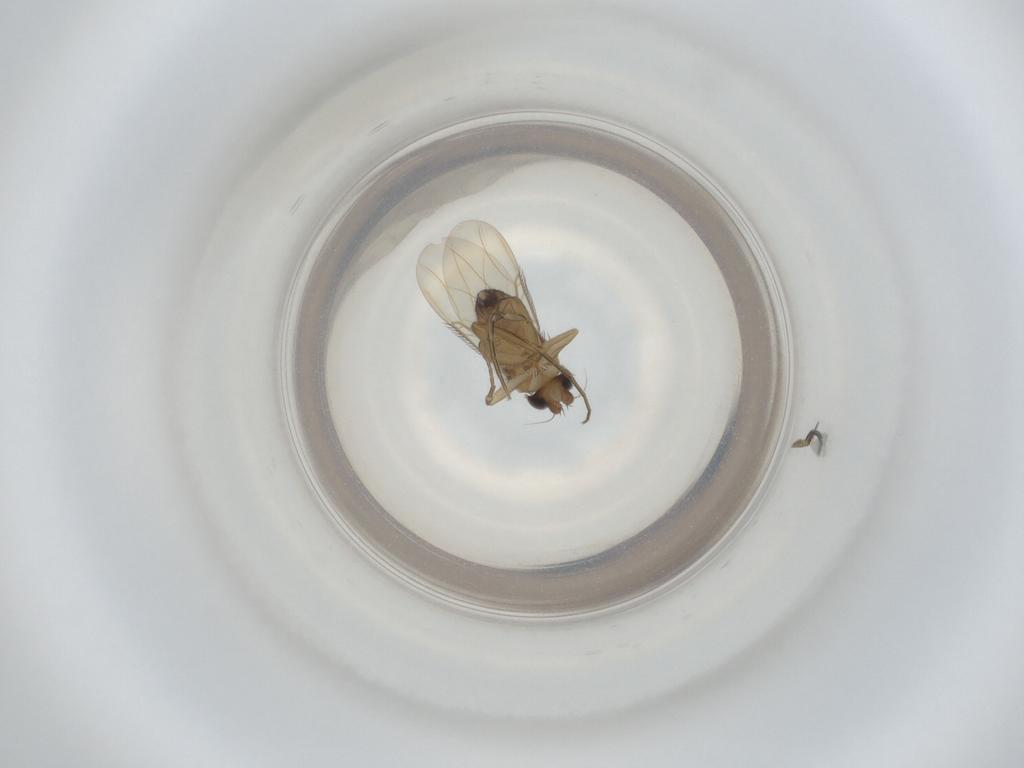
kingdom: Animalia
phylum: Arthropoda
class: Insecta
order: Diptera
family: Phoridae
